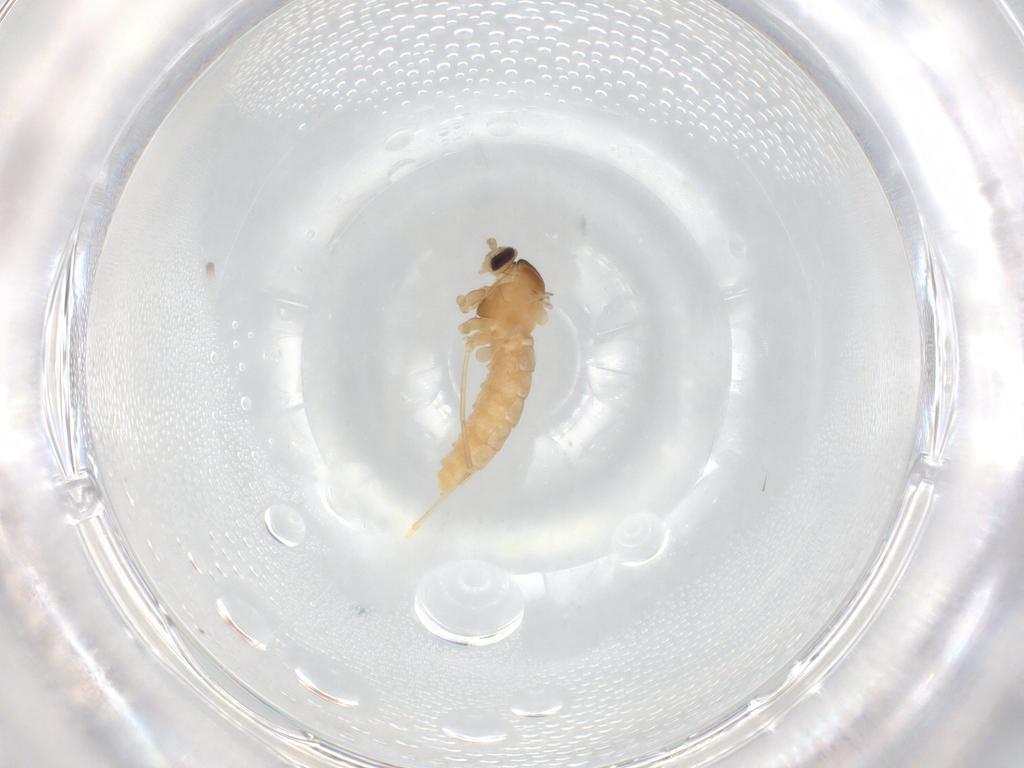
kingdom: Animalia
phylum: Arthropoda
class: Insecta
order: Diptera
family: Cecidomyiidae
